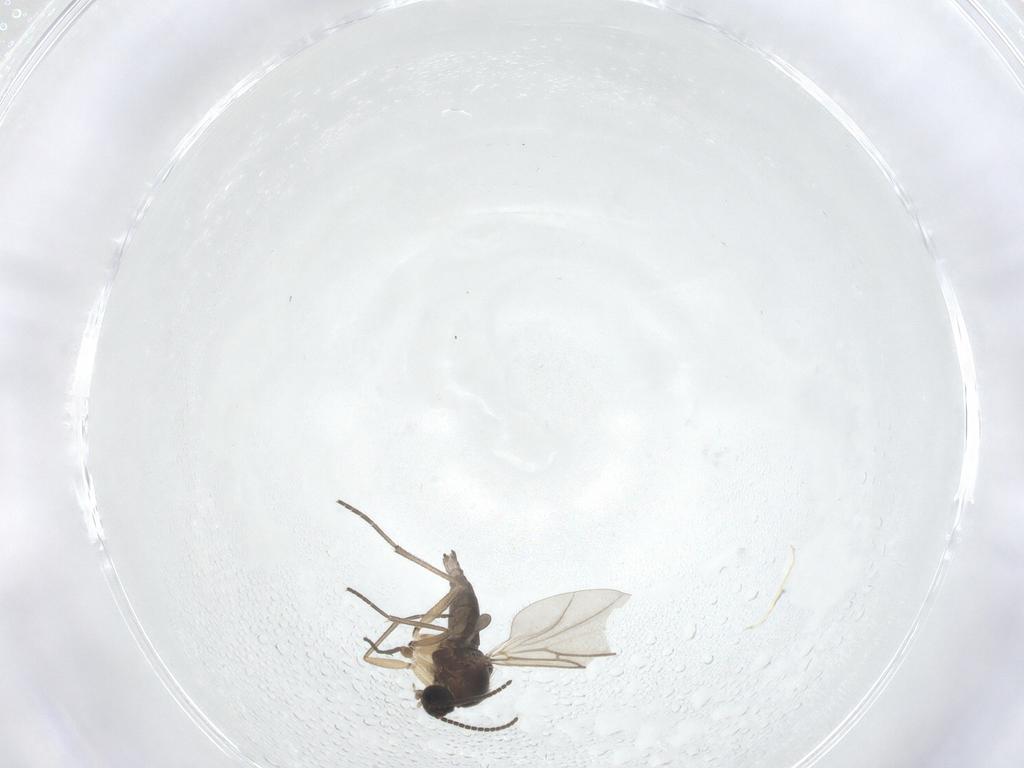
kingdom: Animalia
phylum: Arthropoda
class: Insecta
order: Diptera
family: Sciaridae
